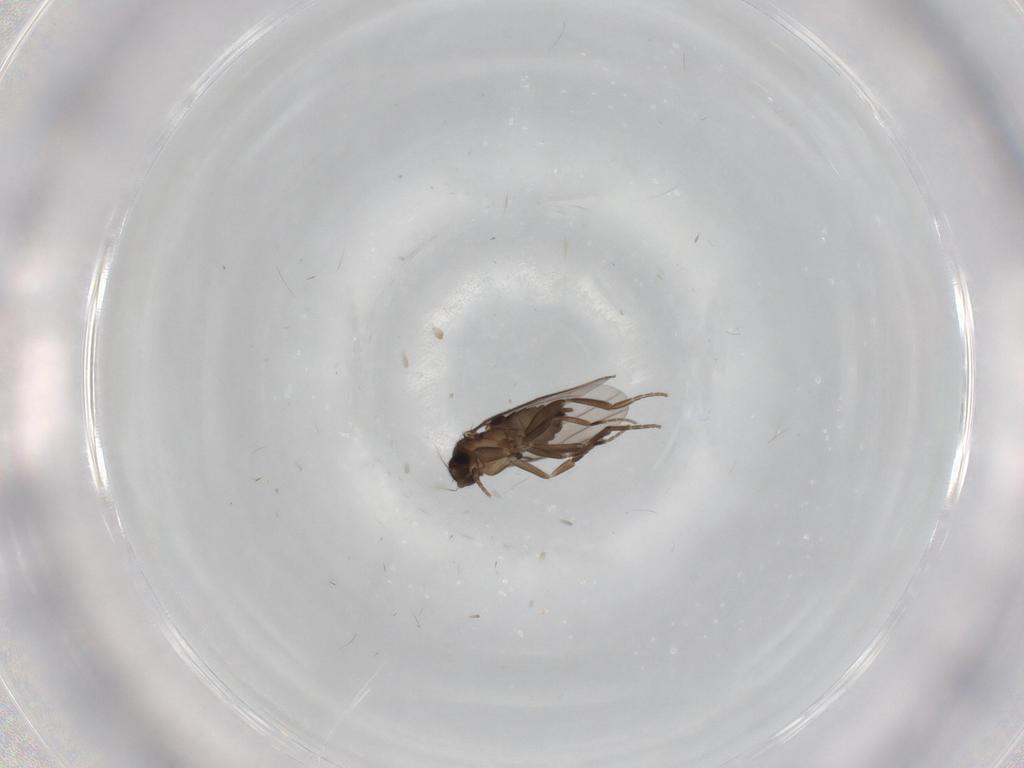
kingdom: Animalia
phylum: Arthropoda
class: Insecta
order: Diptera
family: Phoridae
